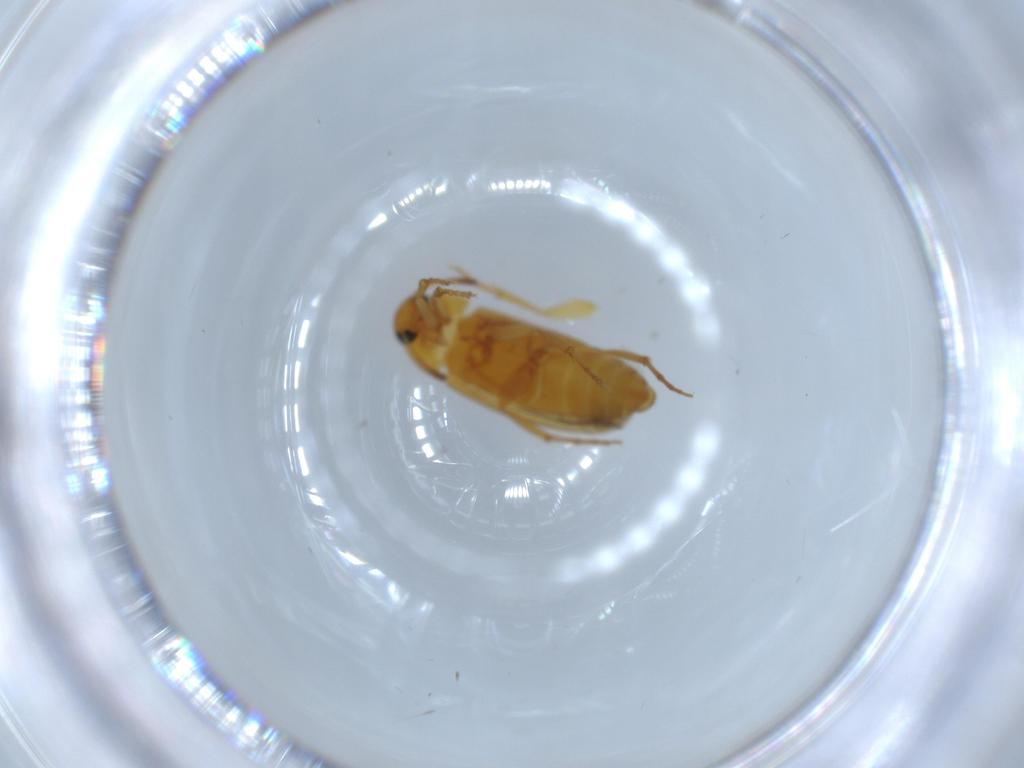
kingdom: Animalia
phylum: Arthropoda
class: Insecta
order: Coleoptera
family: Scraptiidae
